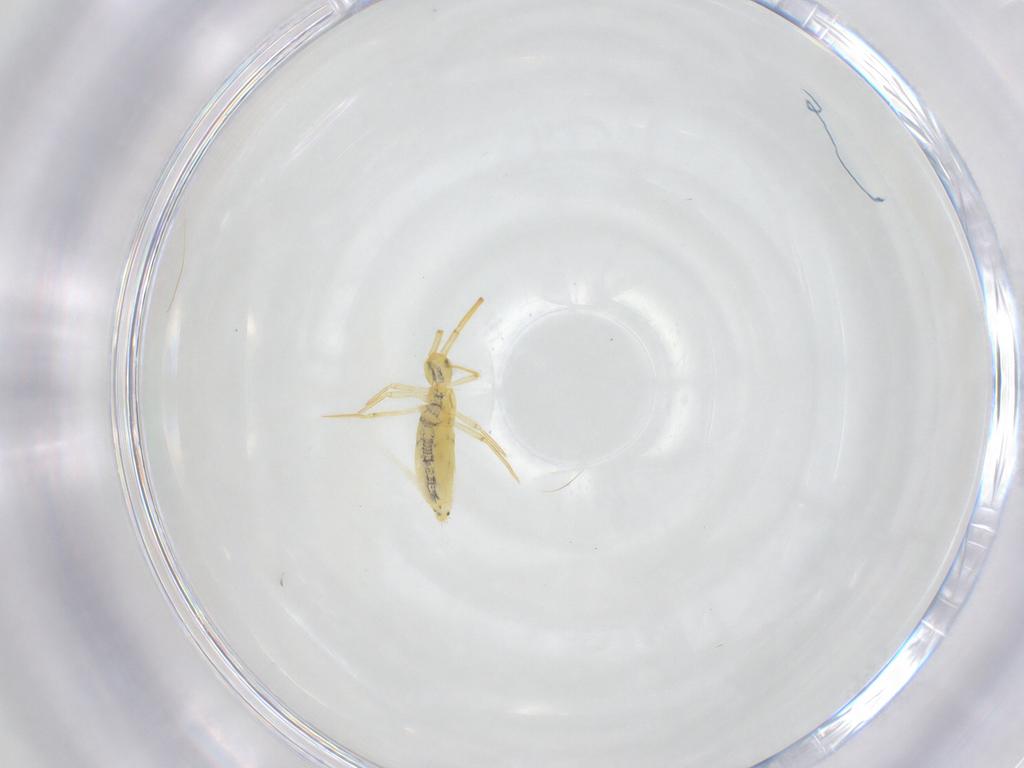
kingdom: Animalia
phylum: Arthropoda
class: Collembola
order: Entomobryomorpha
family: Entomobryidae
